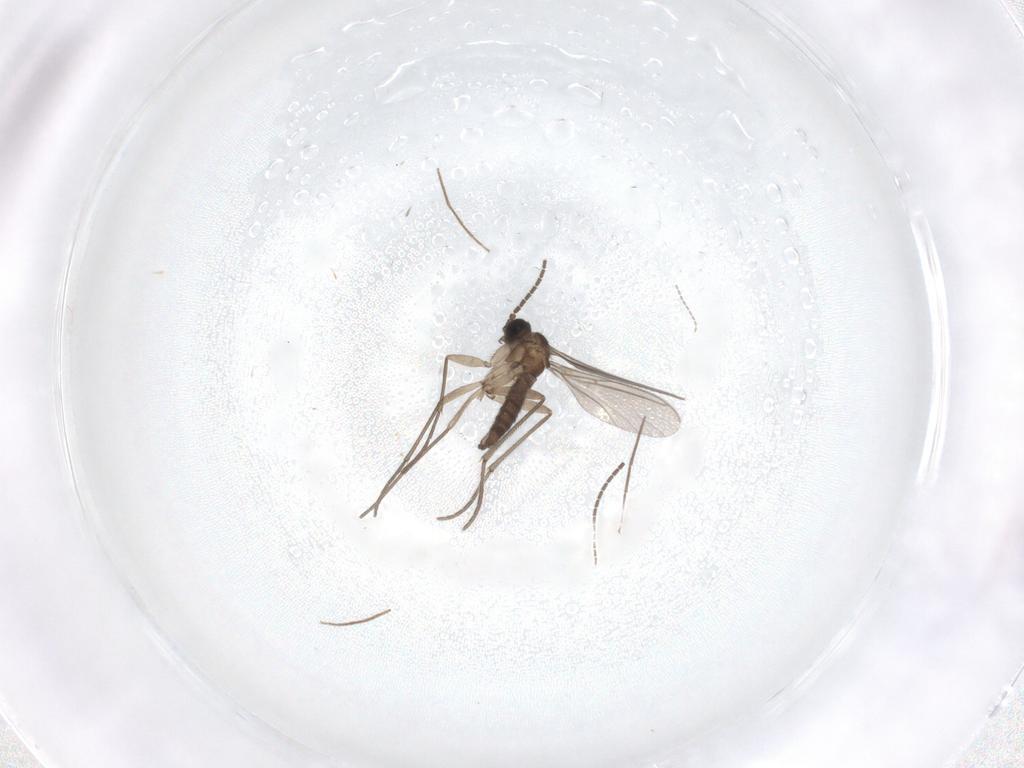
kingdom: Animalia
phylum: Arthropoda
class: Insecta
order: Diptera
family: Sciaridae
